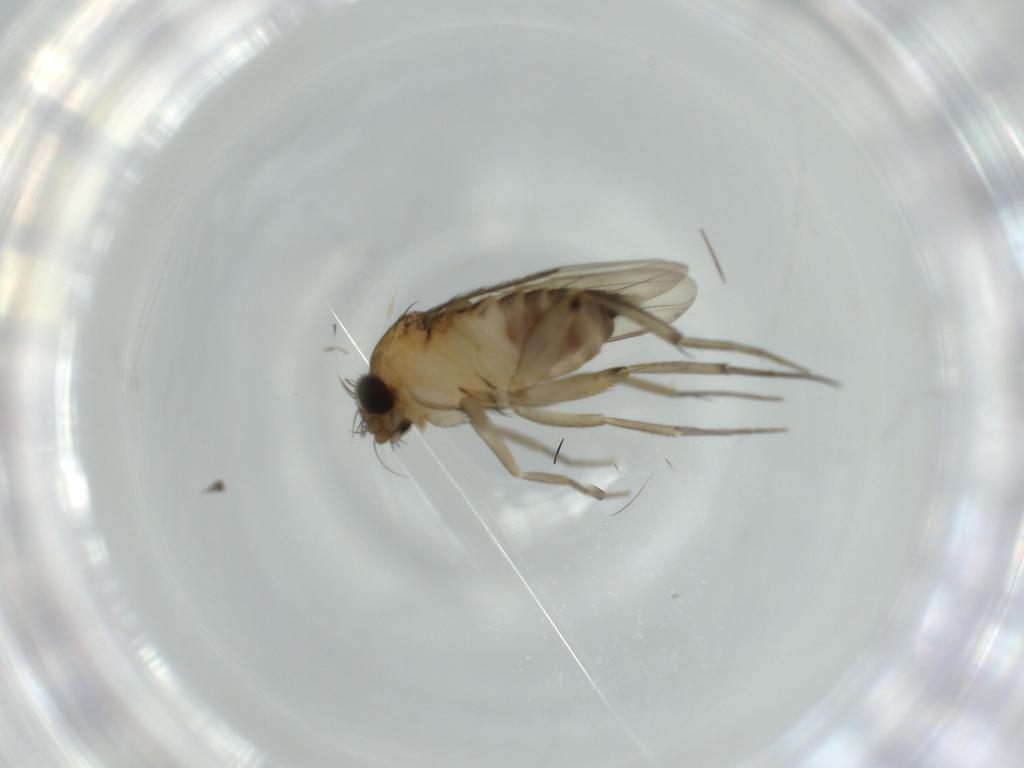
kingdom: Animalia
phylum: Arthropoda
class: Insecta
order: Diptera
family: Phoridae
